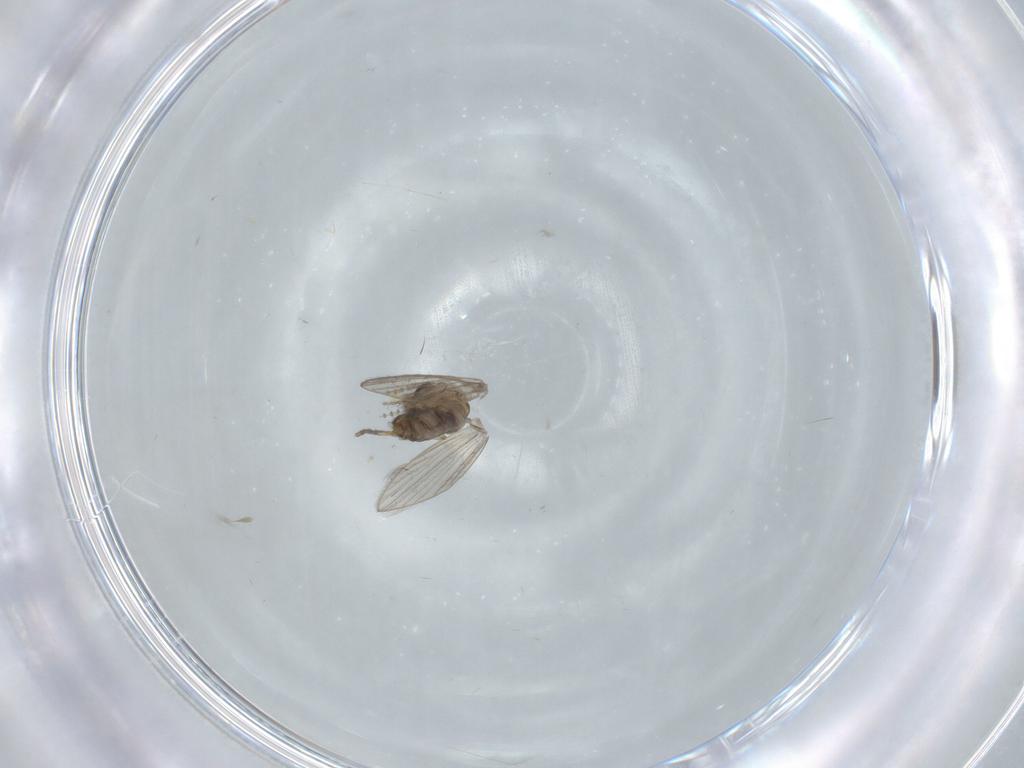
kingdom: Animalia
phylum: Arthropoda
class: Insecta
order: Diptera
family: Psychodidae
